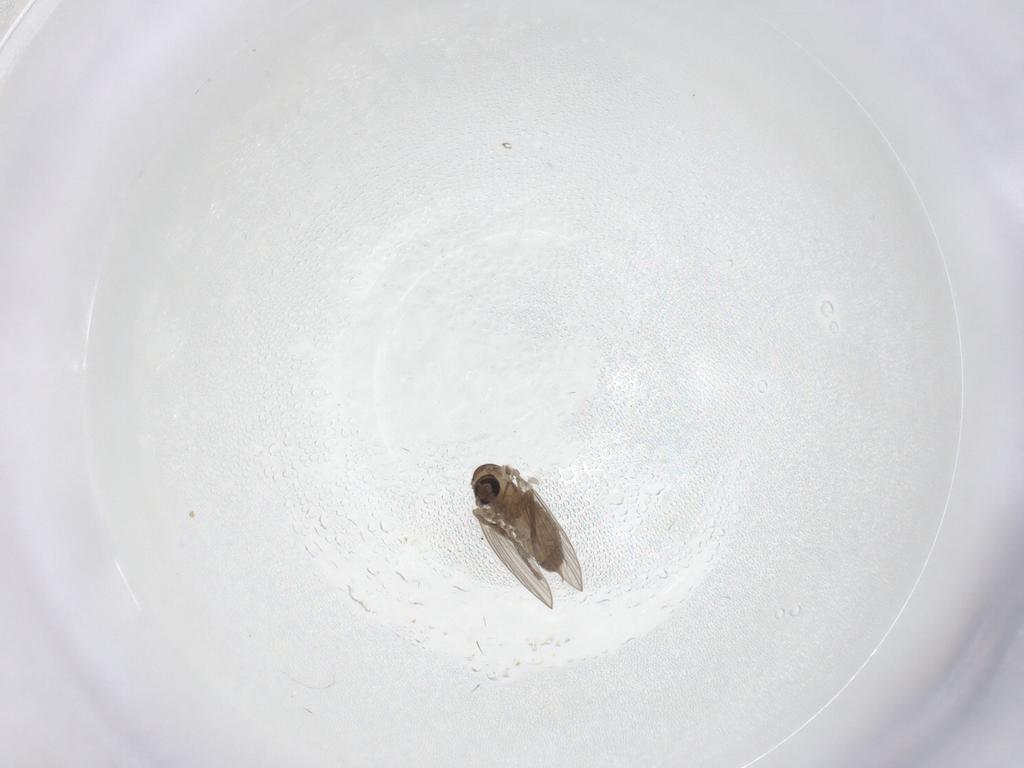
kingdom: Animalia
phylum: Arthropoda
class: Insecta
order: Diptera
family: Psychodidae
